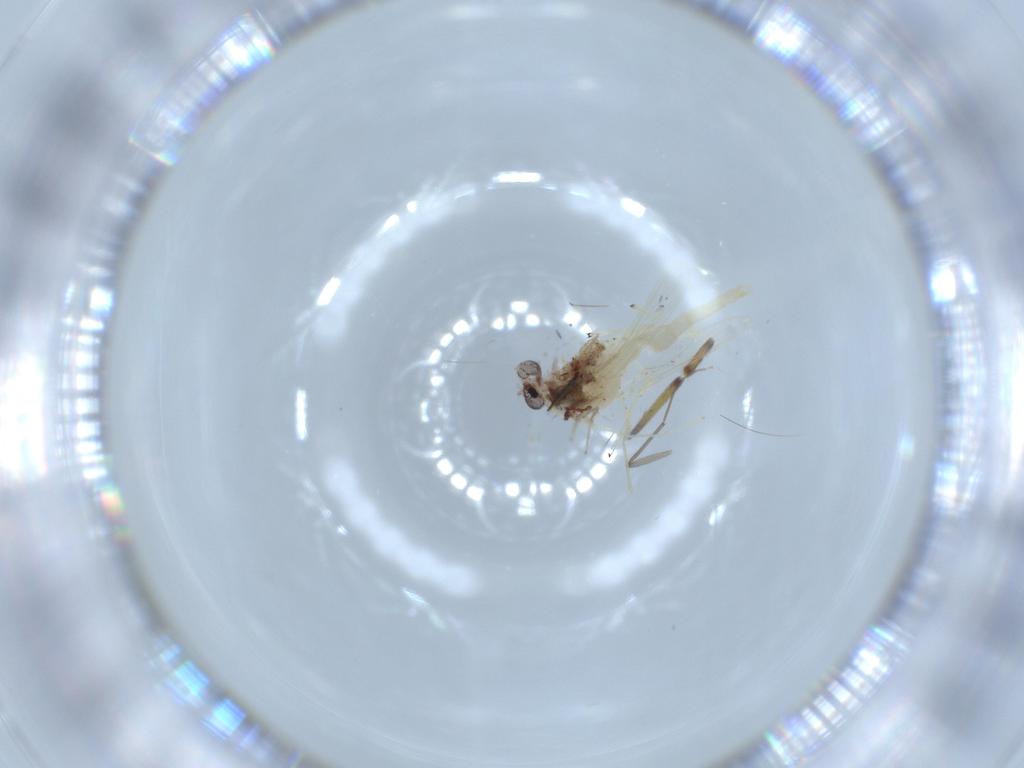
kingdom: Animalia
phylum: Arthropoda
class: Insecta
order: Diptera
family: Chironomidae
